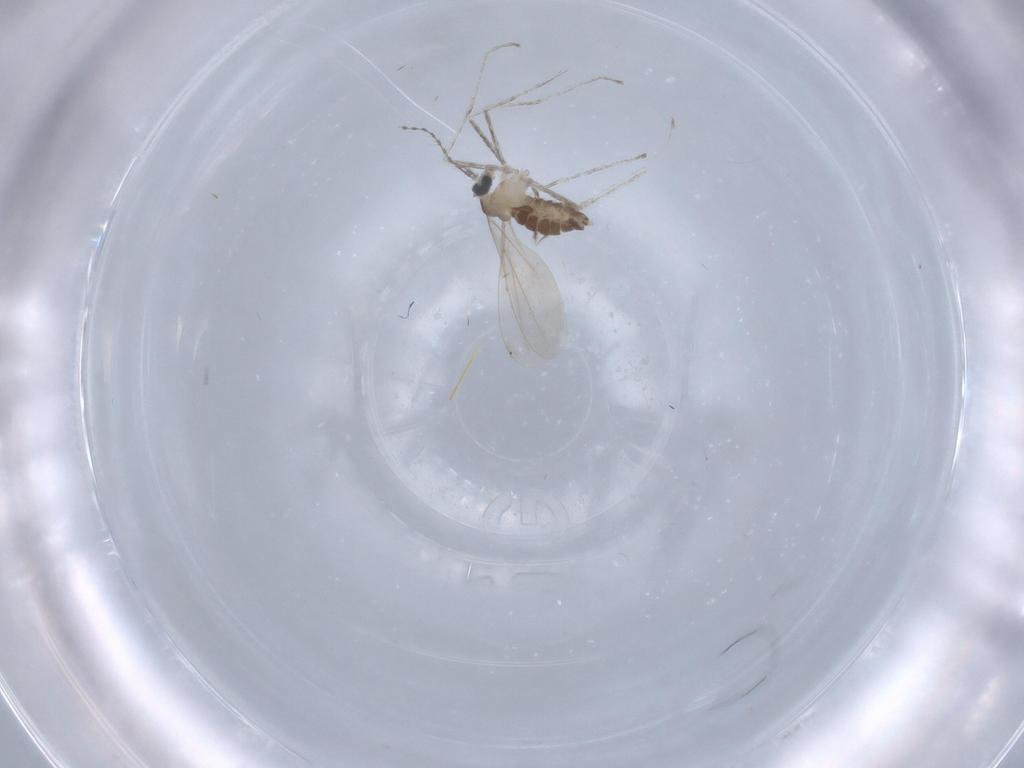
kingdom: Animalia
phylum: Arthropoda
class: Insecta
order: Diptera
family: Cecidomyiidae
